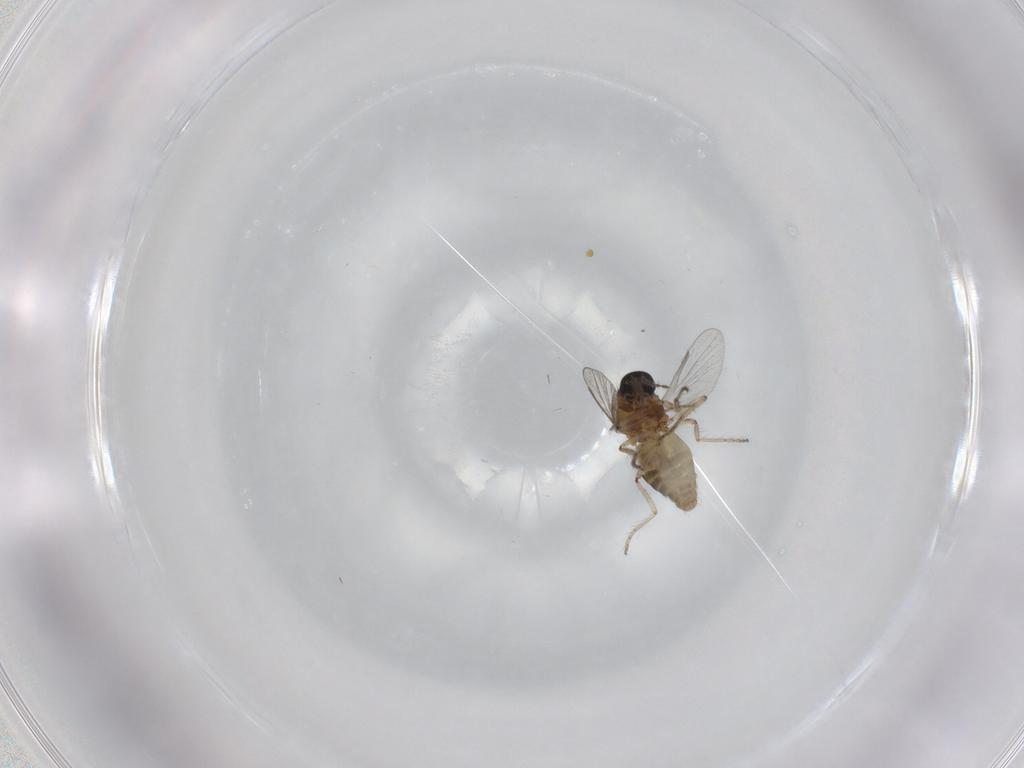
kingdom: Animalia
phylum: Arthropoda
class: Insecta
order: Diptera
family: Ceratopogonidae
